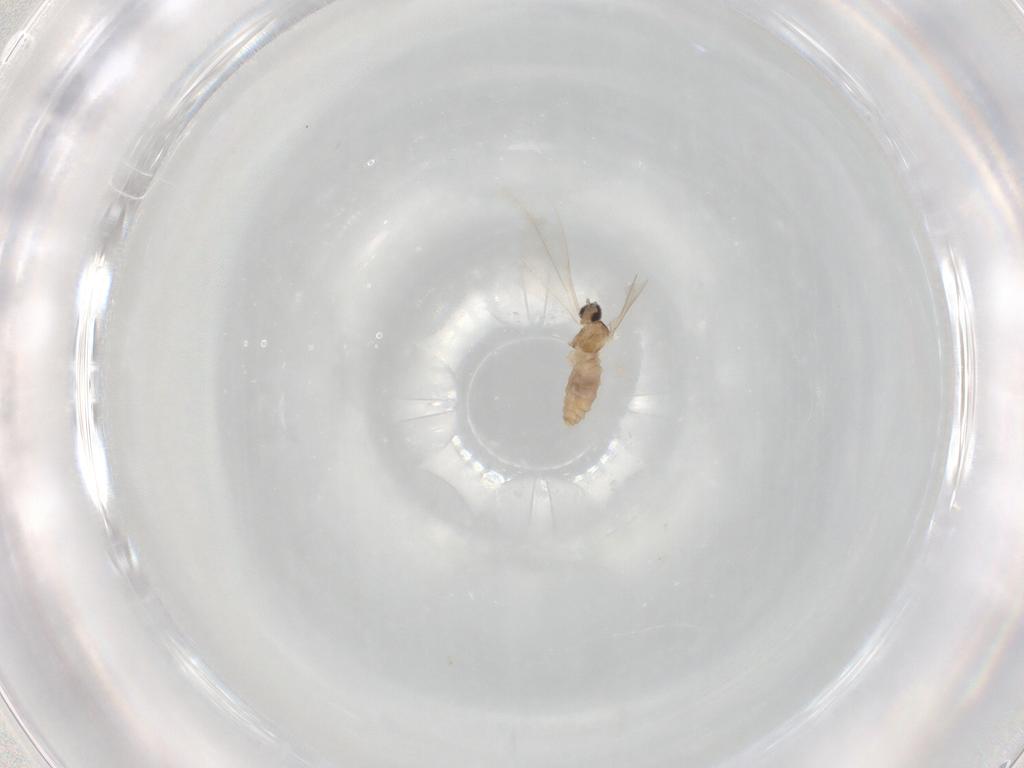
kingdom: Animalia
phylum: Arthropoda
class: Insecta
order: Diptera
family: Cecidomyiidae
